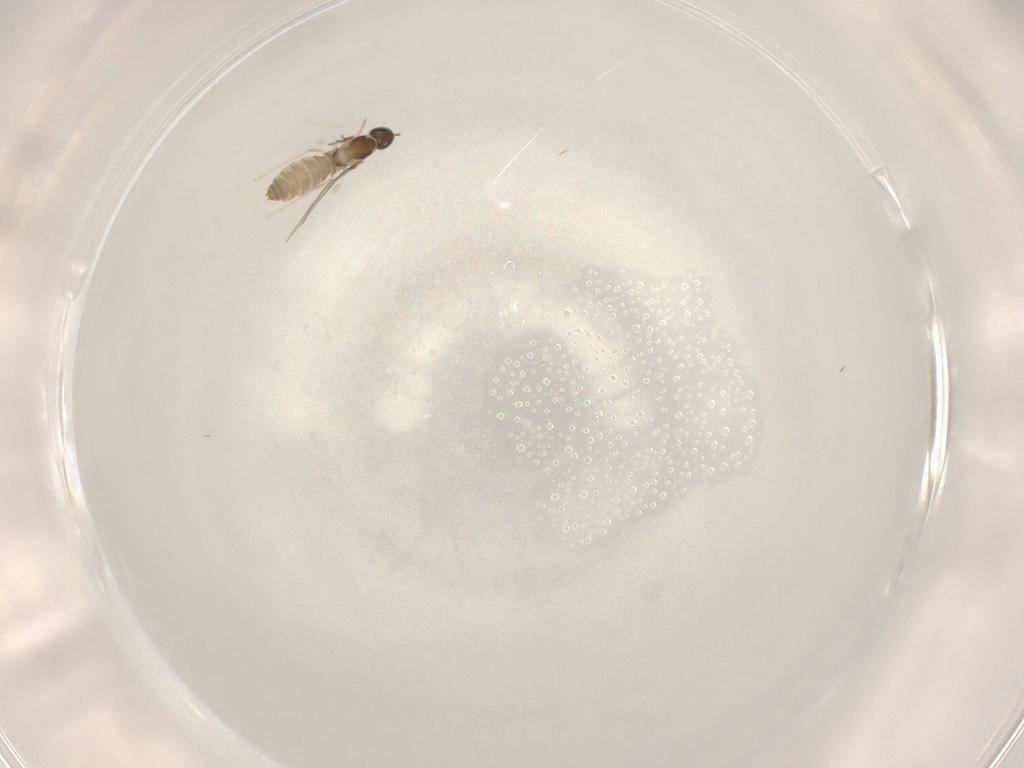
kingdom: Animalia
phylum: Arthropoda
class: Insecta
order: Diptera
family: Cecidomyiidae
